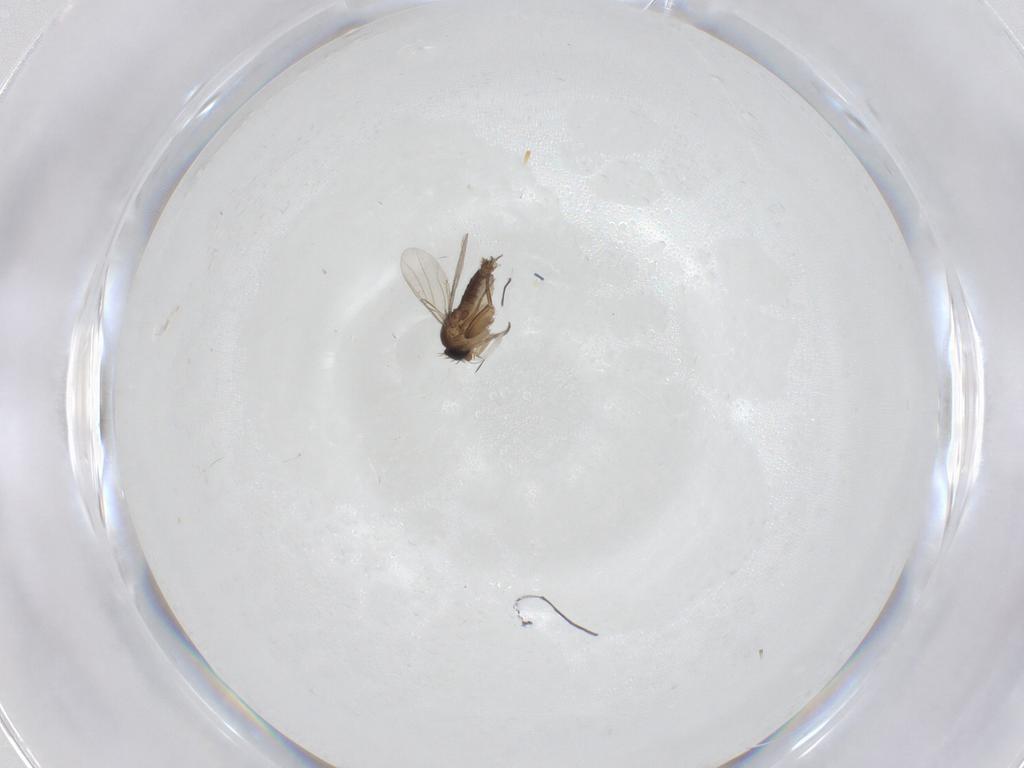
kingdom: Animalia
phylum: Arthropoda
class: Insecta
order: Diptera
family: Phoridae
